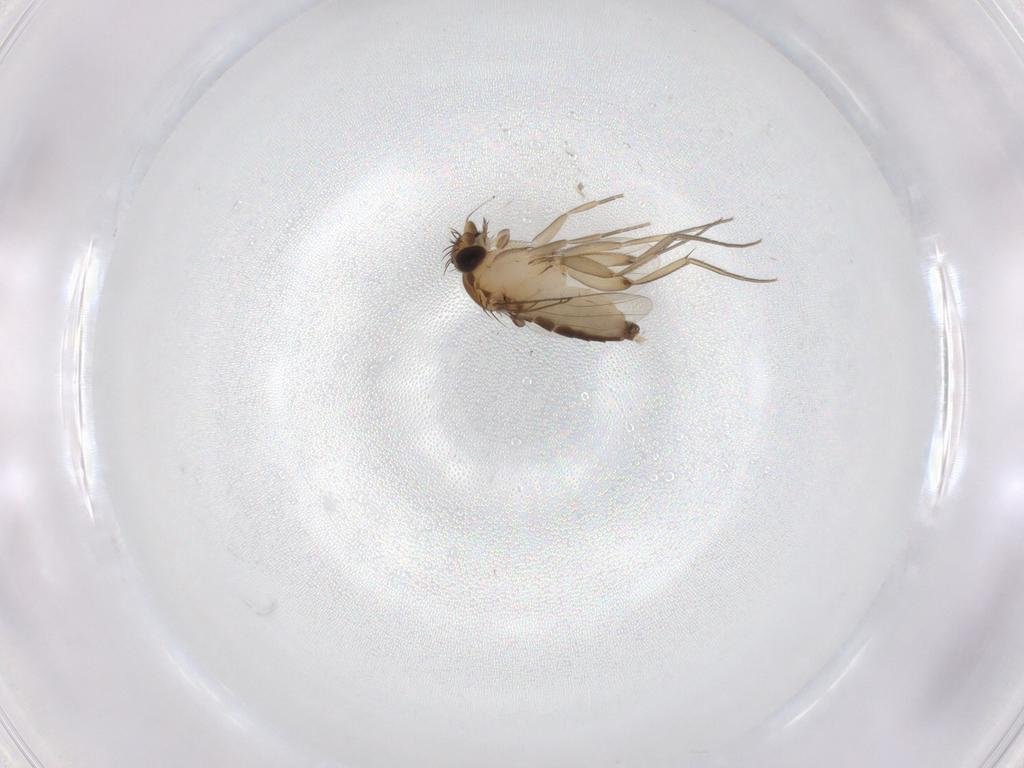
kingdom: Animalia
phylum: Arthropoda
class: Insecta
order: Diptera
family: Phoridae
